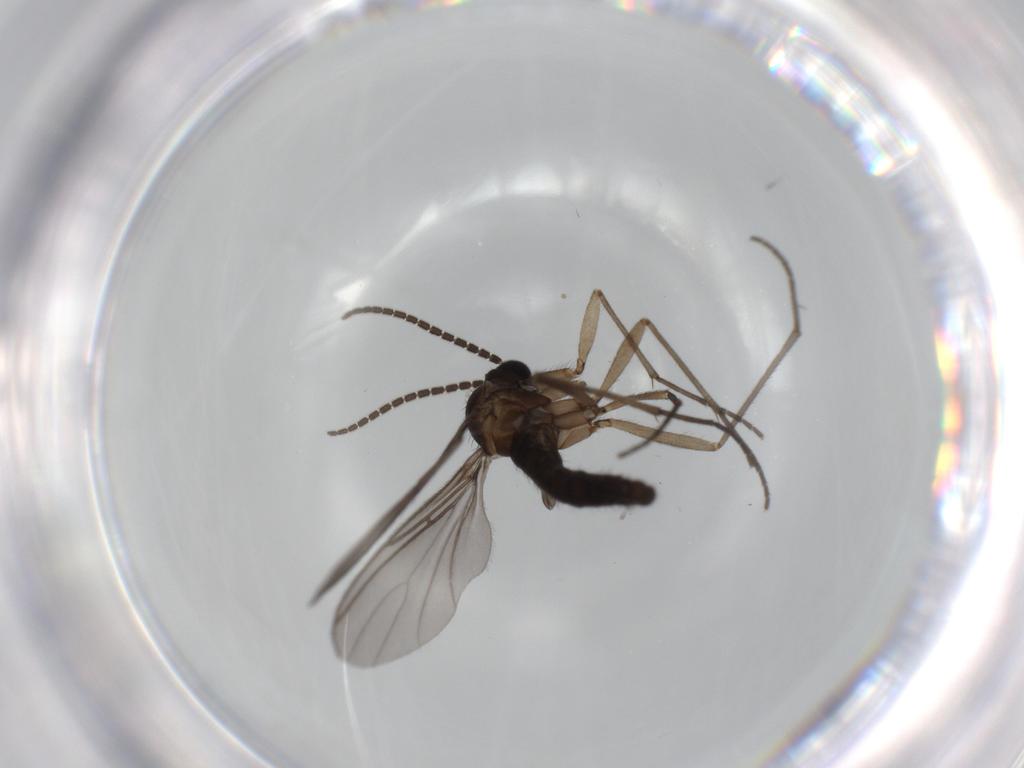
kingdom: Animalia
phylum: Arthropoda
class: Insecta
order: Diptera
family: Sciaridae
